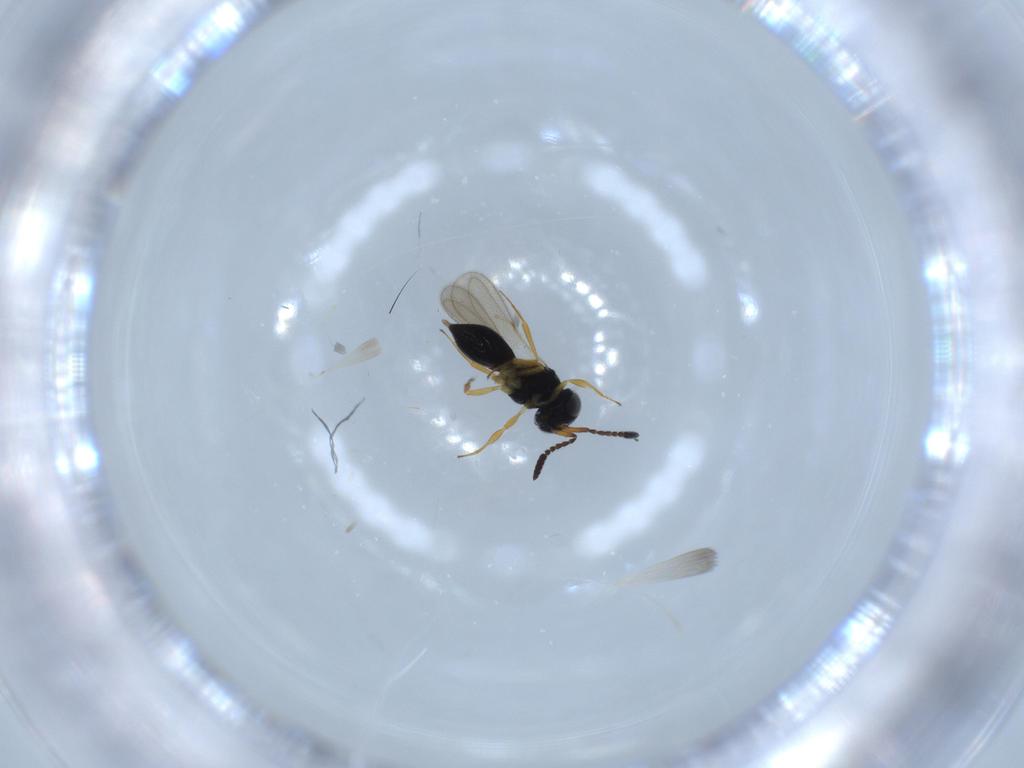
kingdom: Animalia
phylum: Arthropoda
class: Insecta
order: Hymenoptera
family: Scelionidae
